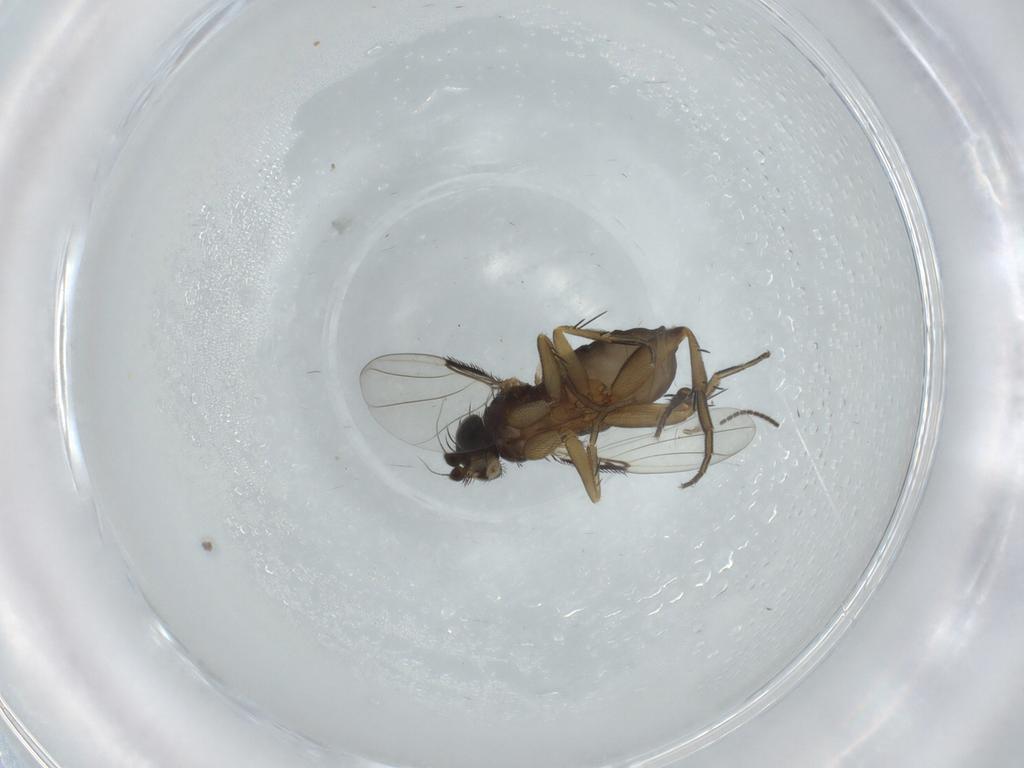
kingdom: Animalia
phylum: Arthropoda
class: Insecta
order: Diptera
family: Phoridae
